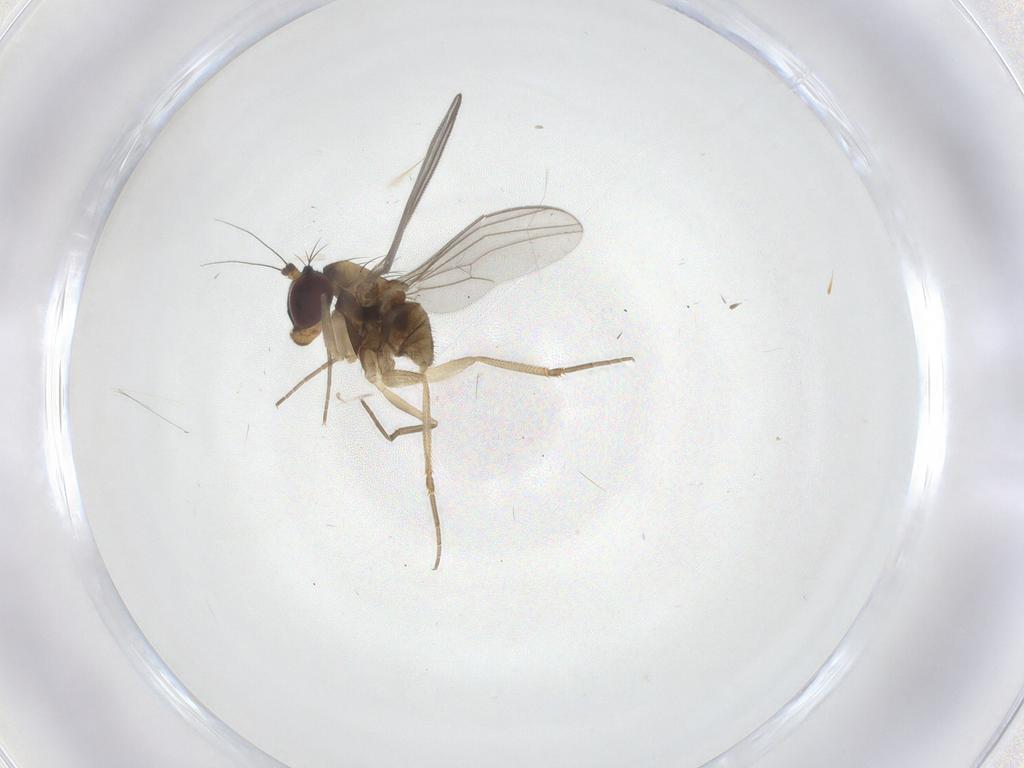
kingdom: Animalia
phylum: Arthropoda
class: Insecta
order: Diptera
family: Dolichopodidae
